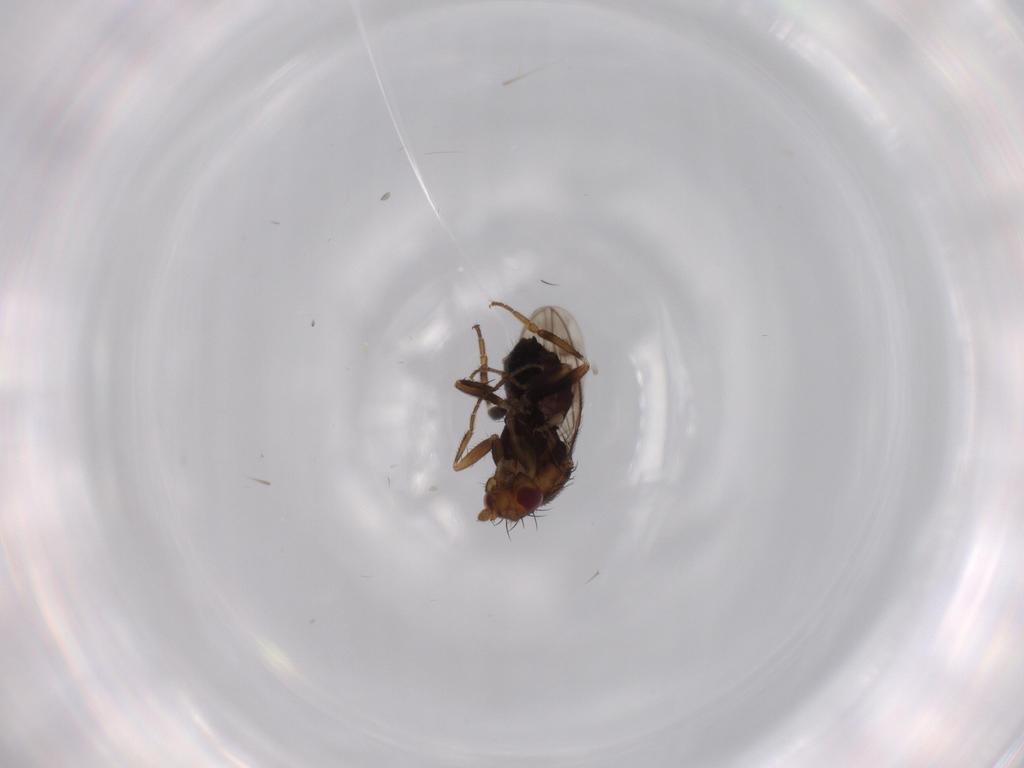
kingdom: Animalia
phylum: Arthropoda
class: Insecta
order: Diptera
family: Sphaeroceridae
